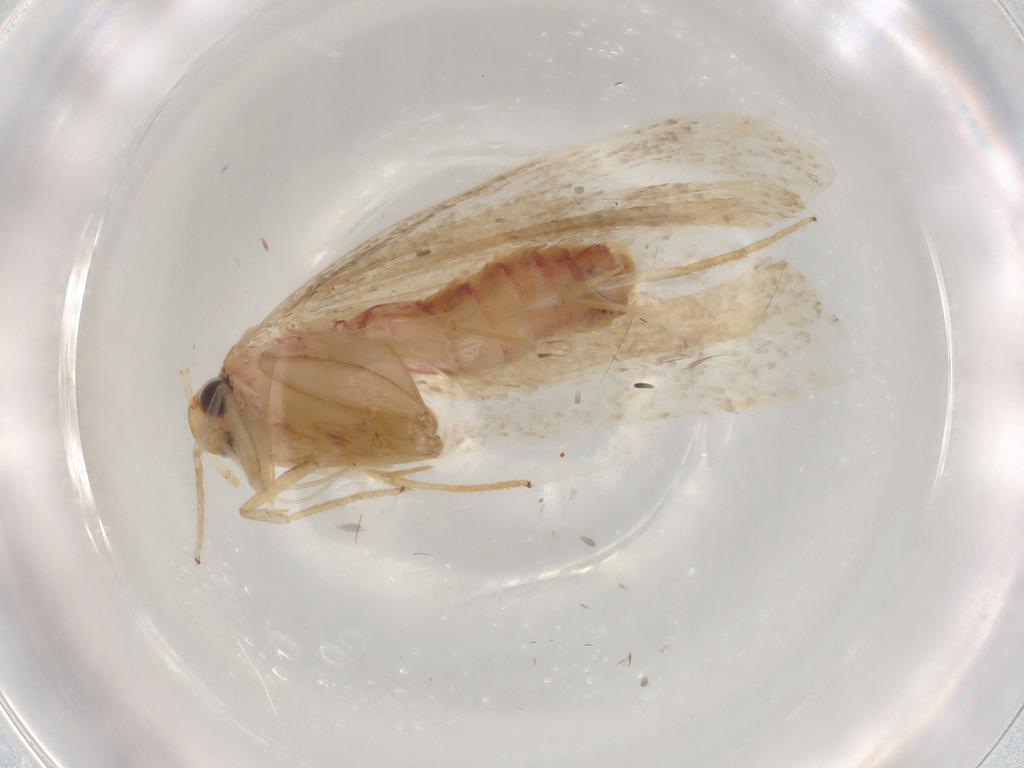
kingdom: Animalia
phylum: Arthropoda
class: Insecta
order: Lepidoptera
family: Lecithoceridae
